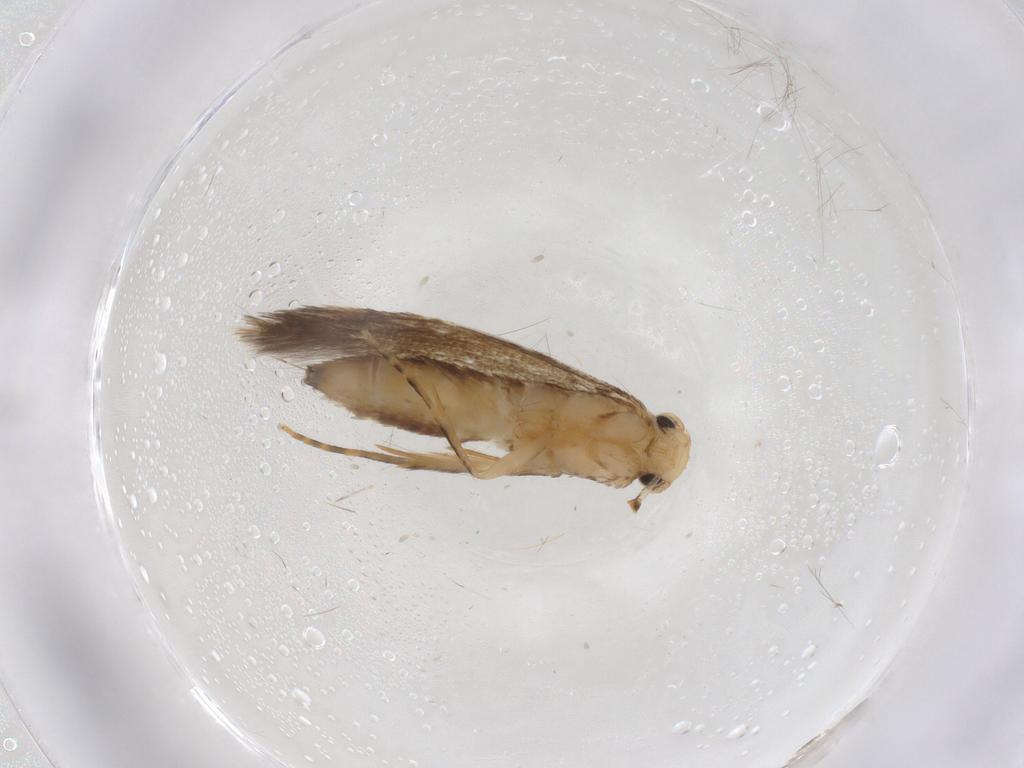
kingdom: Animalia
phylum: Arthropoda
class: Insecta
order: Lepidoptera
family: Tineidae
